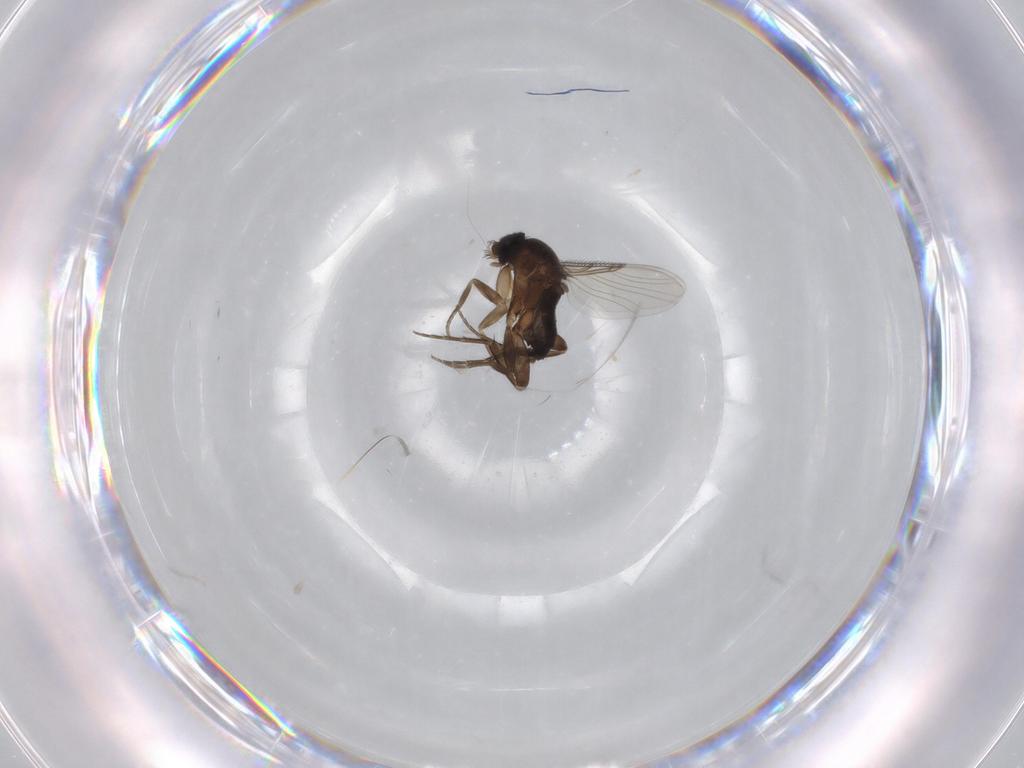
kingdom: Animalia
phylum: Arthropoda
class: Insecta
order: Diptera
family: Phoridae
